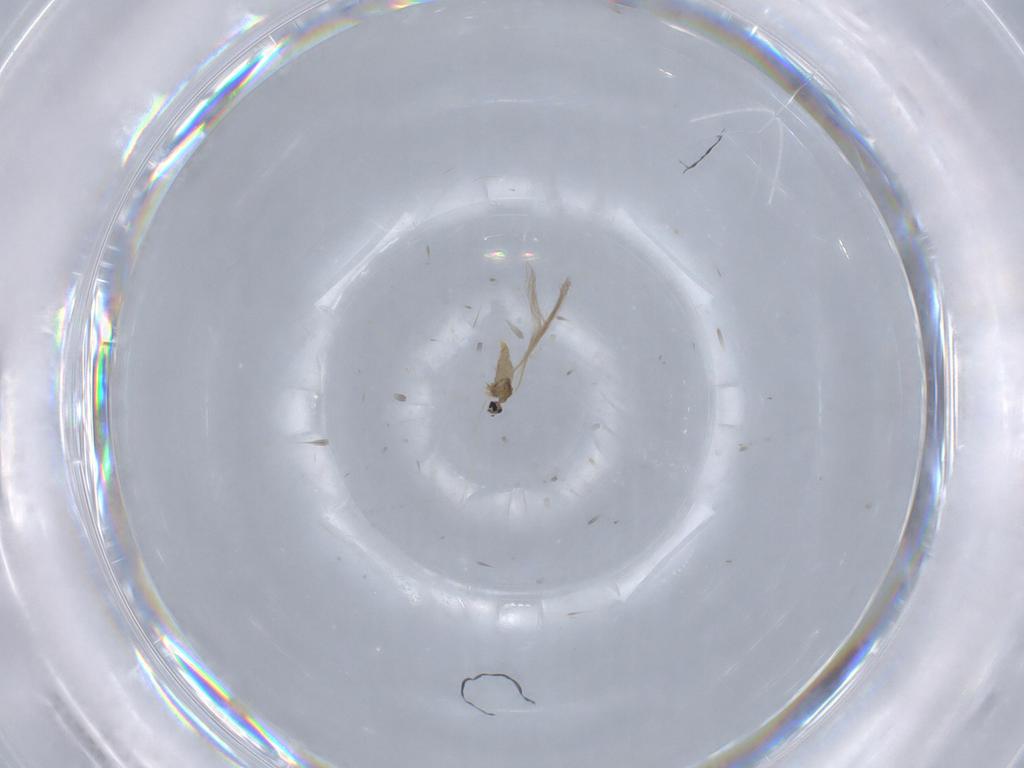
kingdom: Animalia
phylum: Arthropoda
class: Insecta
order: Diptera
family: Cecidomyiidae
